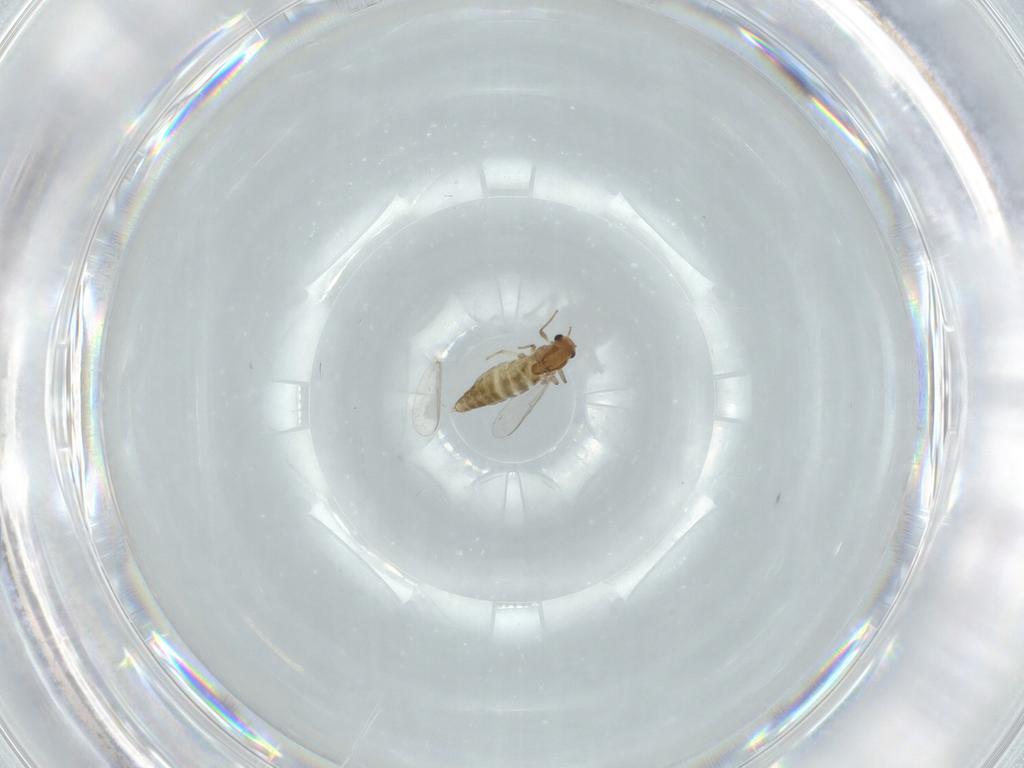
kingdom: Animalia
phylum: Arthropoda
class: Insecta
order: Diptera
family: Chironomidae
